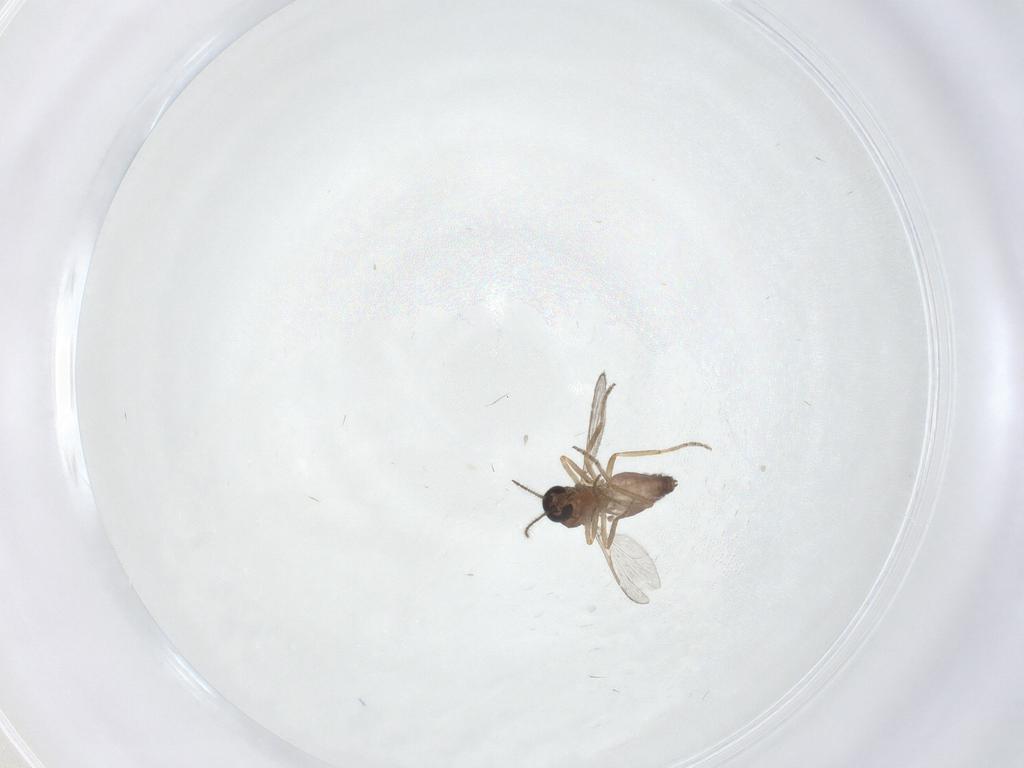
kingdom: Animalia
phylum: Arthropoda
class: Insecta
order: Diptera
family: Ceratopogonidae
